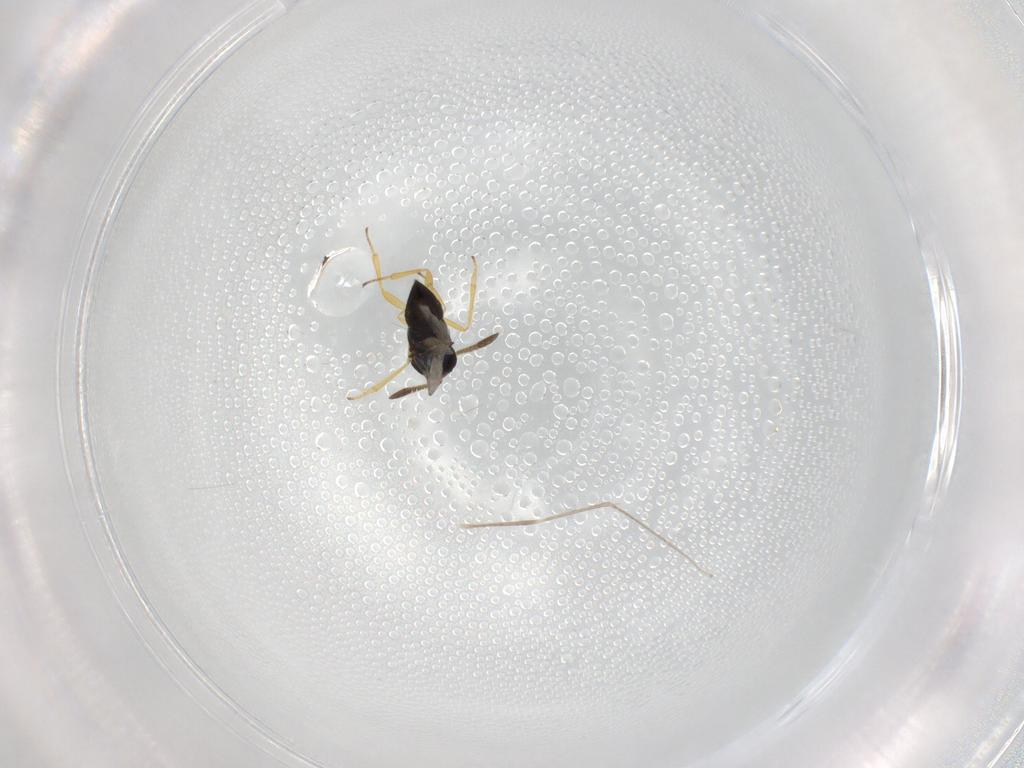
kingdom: Animalia
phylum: Arthropoda
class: Insecta
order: Hymenoptera
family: Encyrtidae
